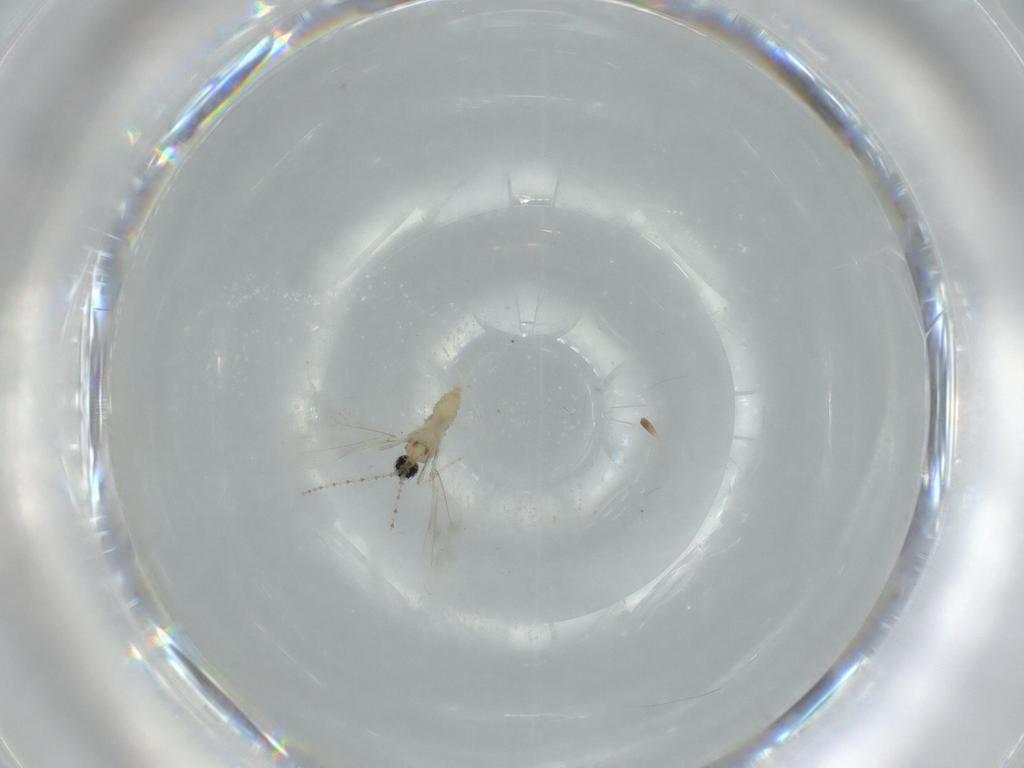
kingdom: Animalia
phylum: Arthropoda
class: Insecta
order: Diptera
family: Cecidomyiidae
